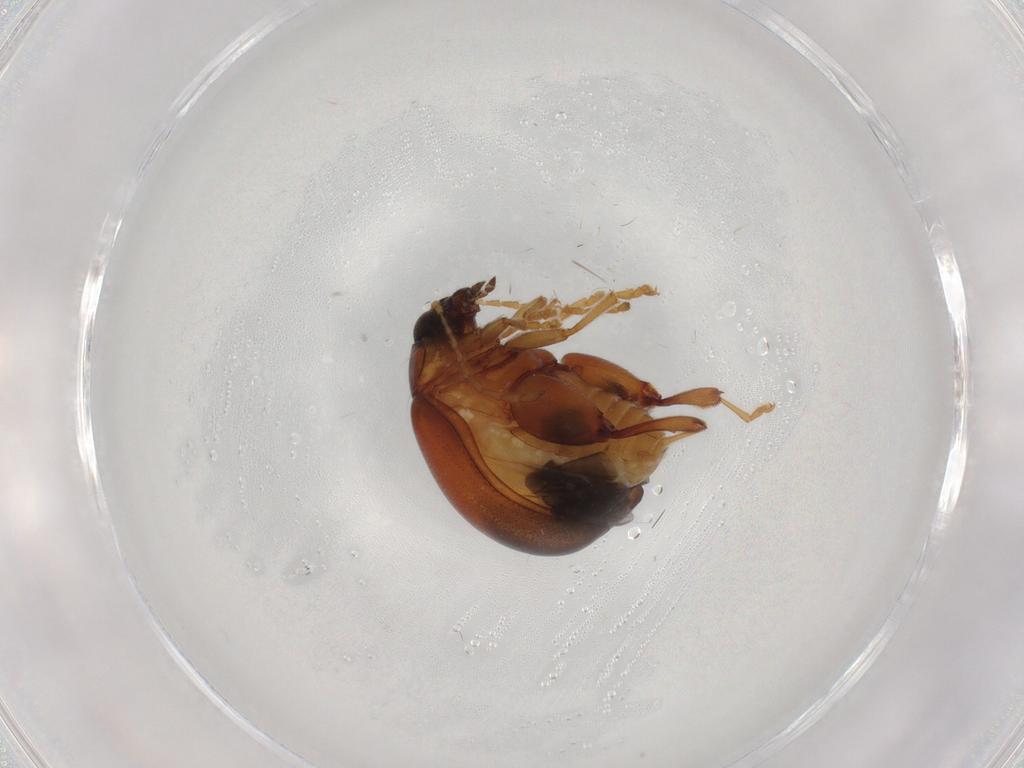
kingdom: Animalia
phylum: Arthropoda
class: Insecta
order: Coleoptera
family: Chrysomelidae
